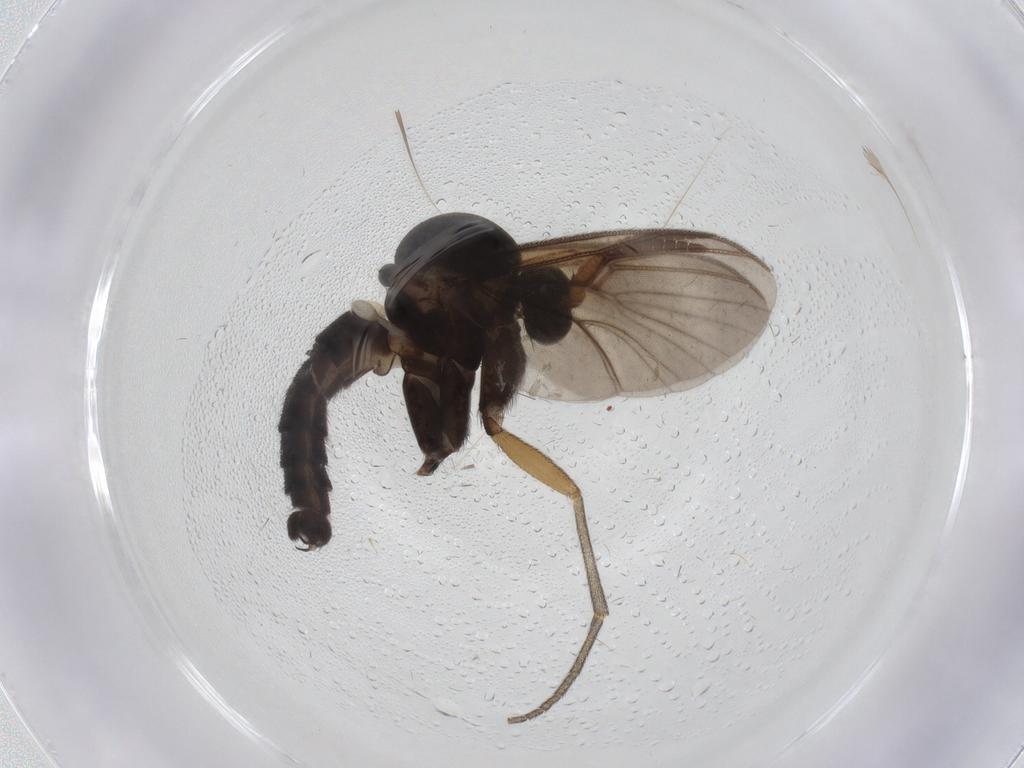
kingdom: Animalia
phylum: Arthropoda
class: Insecta
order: Diptera
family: Mycetophilidae
